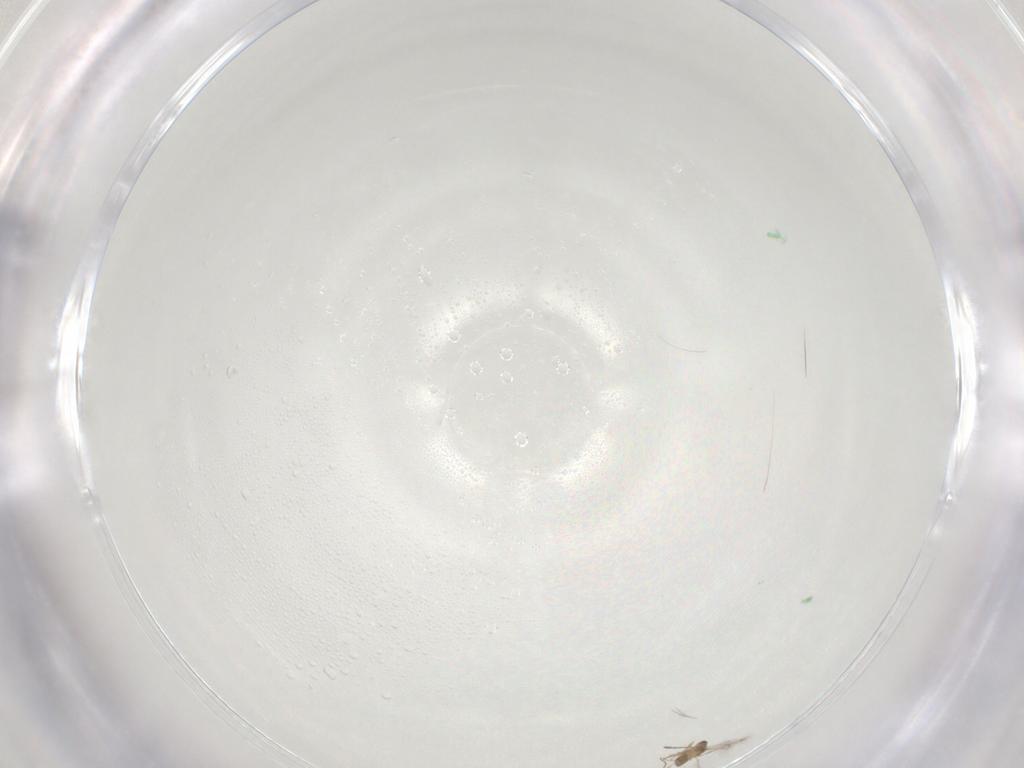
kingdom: Animalia
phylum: Arthropoda
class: Insecta
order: Hymenoptera
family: Mymaridae
